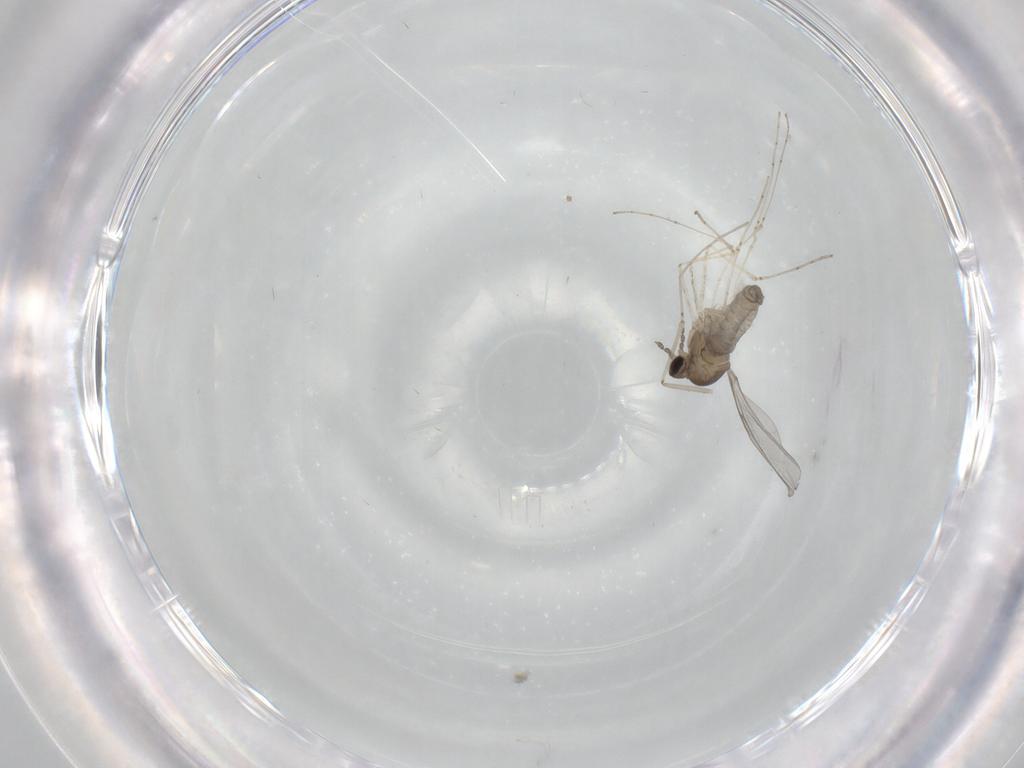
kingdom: Animalia
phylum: Arthropoda
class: Insecta
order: Diptera
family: Cecidomyiidae
